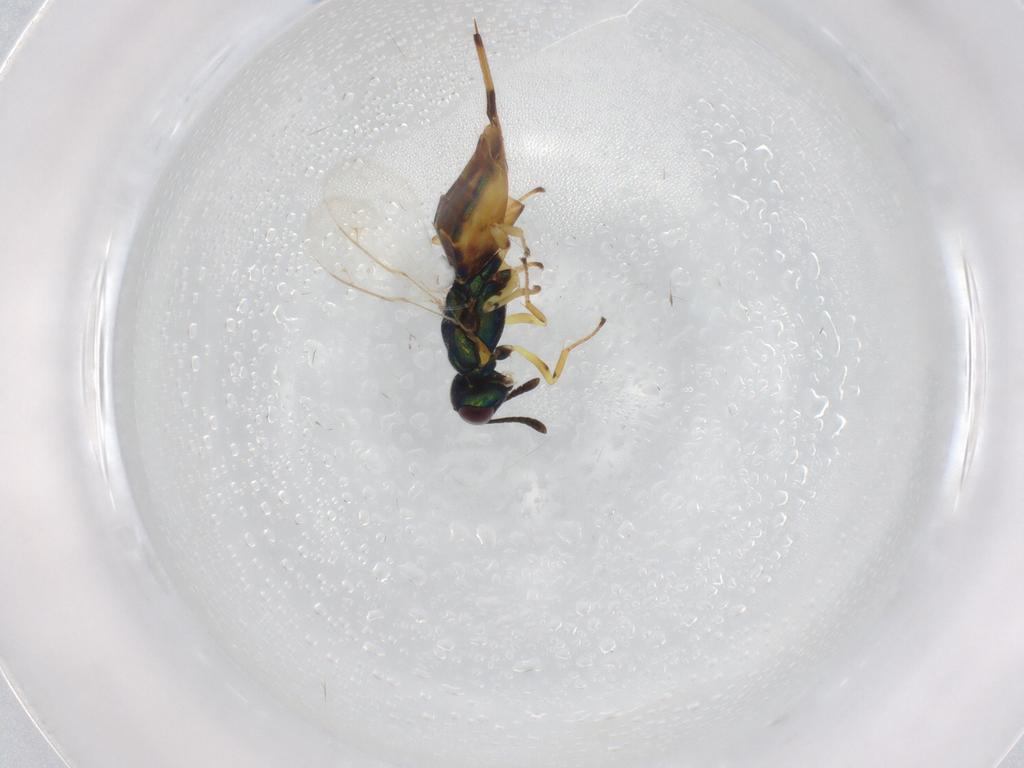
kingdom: Animalia
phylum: Arthropoda
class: Insecta
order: Hymenoptera
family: Eupelmidae
